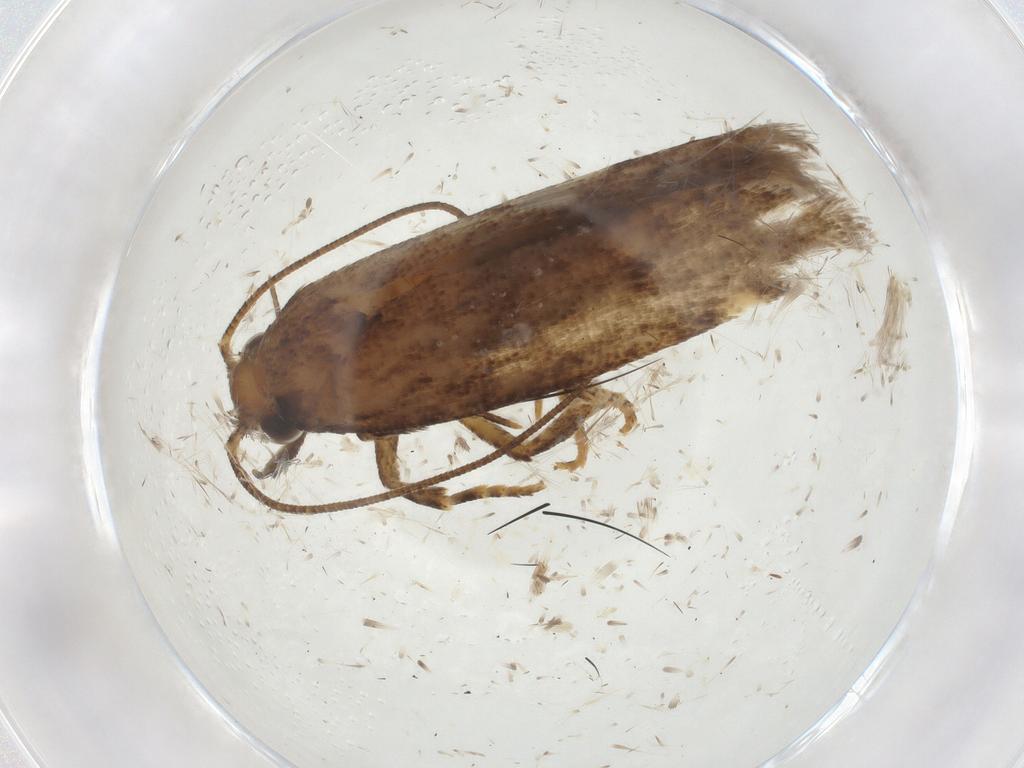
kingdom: Animalia
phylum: Arthropoda
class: Insecta
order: Lepidoptera
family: Gelechiidae
